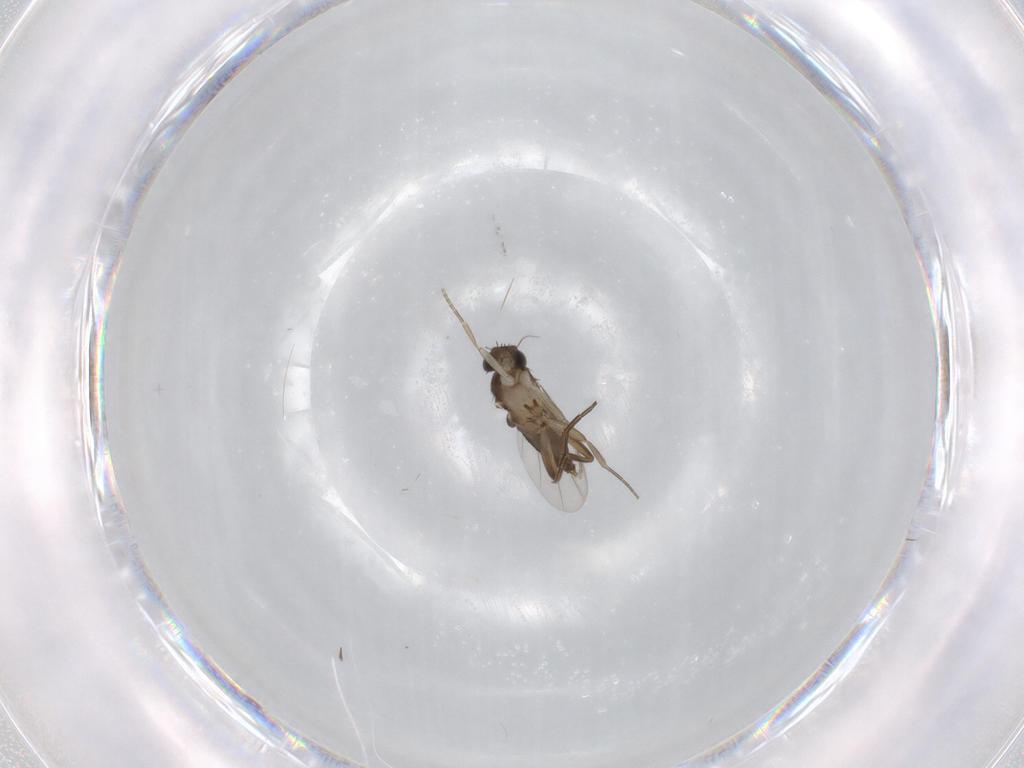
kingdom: Animalia
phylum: Arthropoda
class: Insecta
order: Diptera
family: Phoridae
